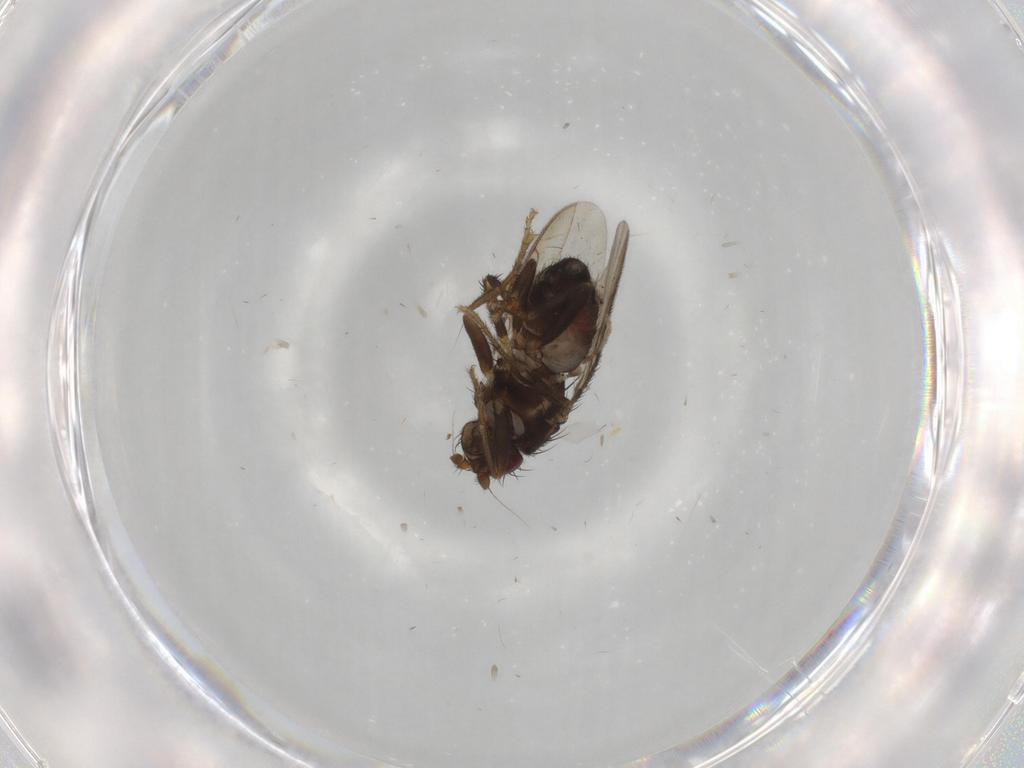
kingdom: Animalia
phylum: Arthropoda
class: Insecta
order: Diptera
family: Sphaeroceridae
